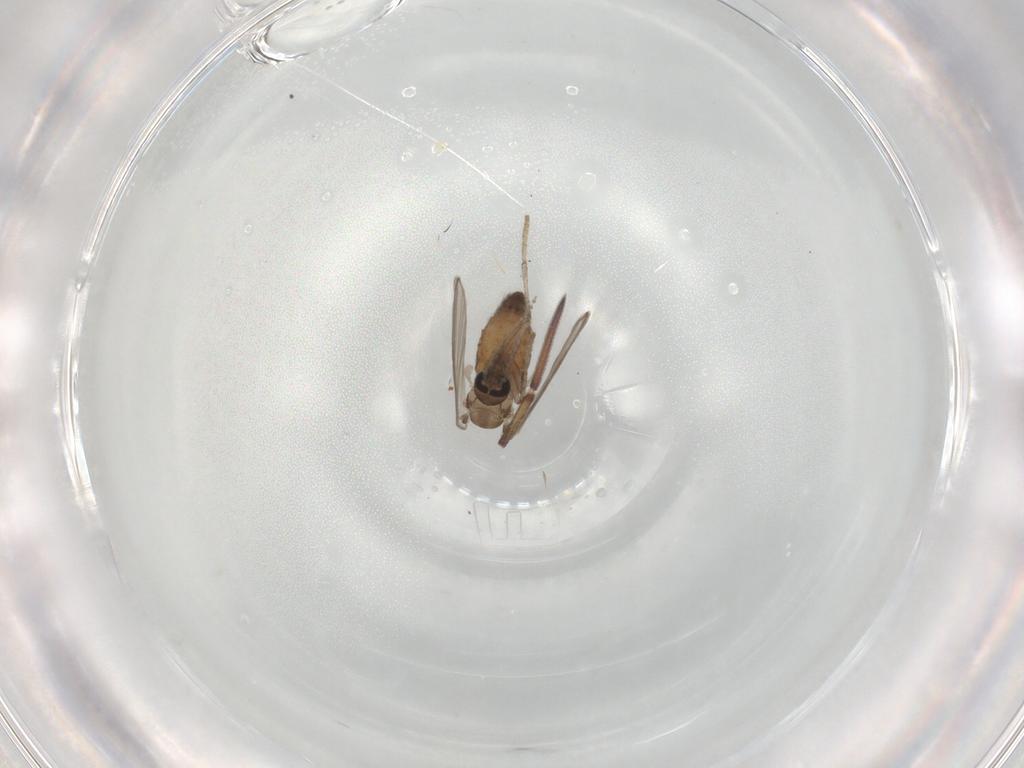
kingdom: Animalia
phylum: Arthropoda
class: Insecta
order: Diptera
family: Psychodidae
